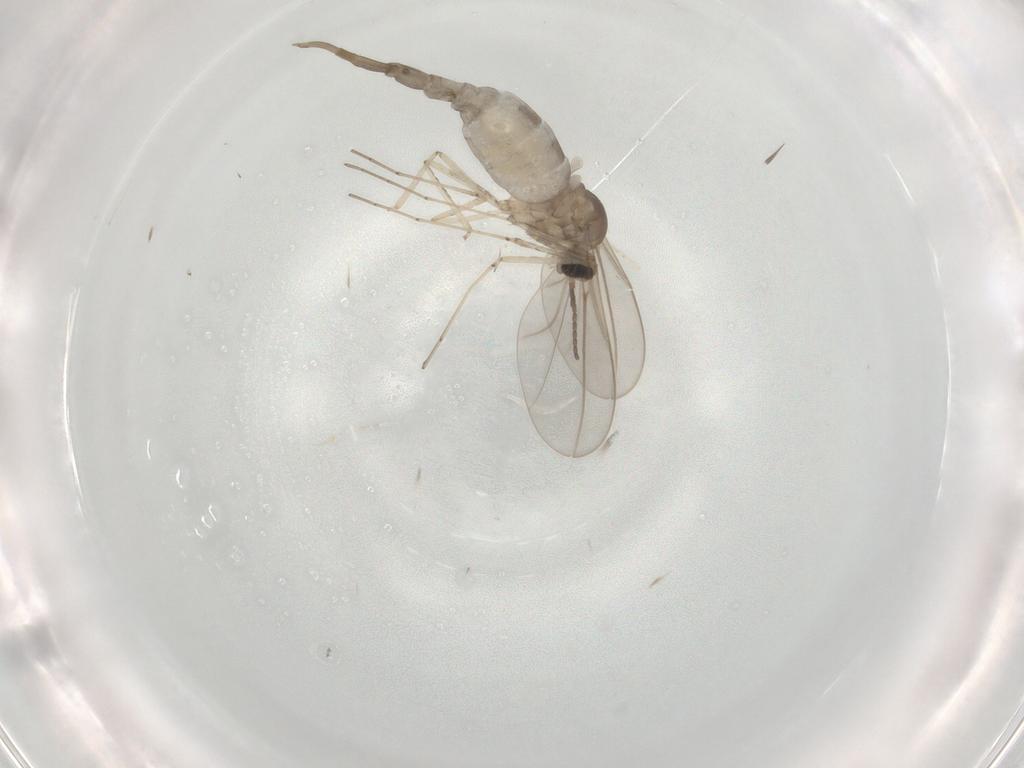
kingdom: Animalia
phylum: Arthropoda
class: Insecta
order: Diptera
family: Cecidomyiidae
